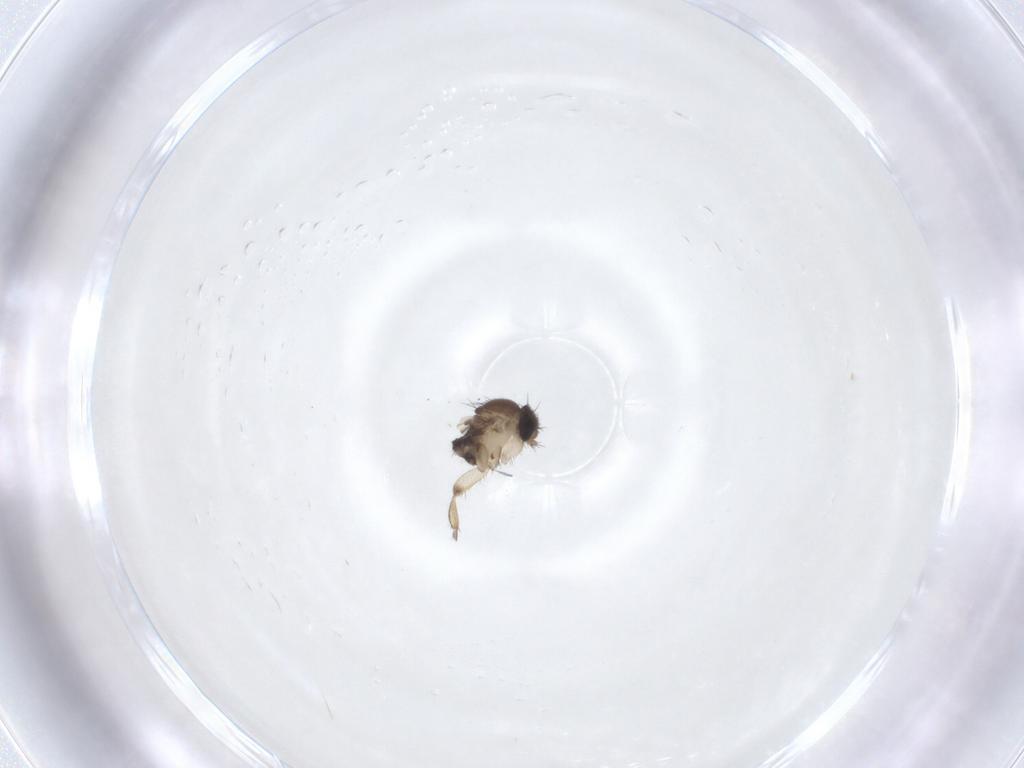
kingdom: Animalia
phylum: Arthropoda
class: Insecta
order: Diptera
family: Phoridae
